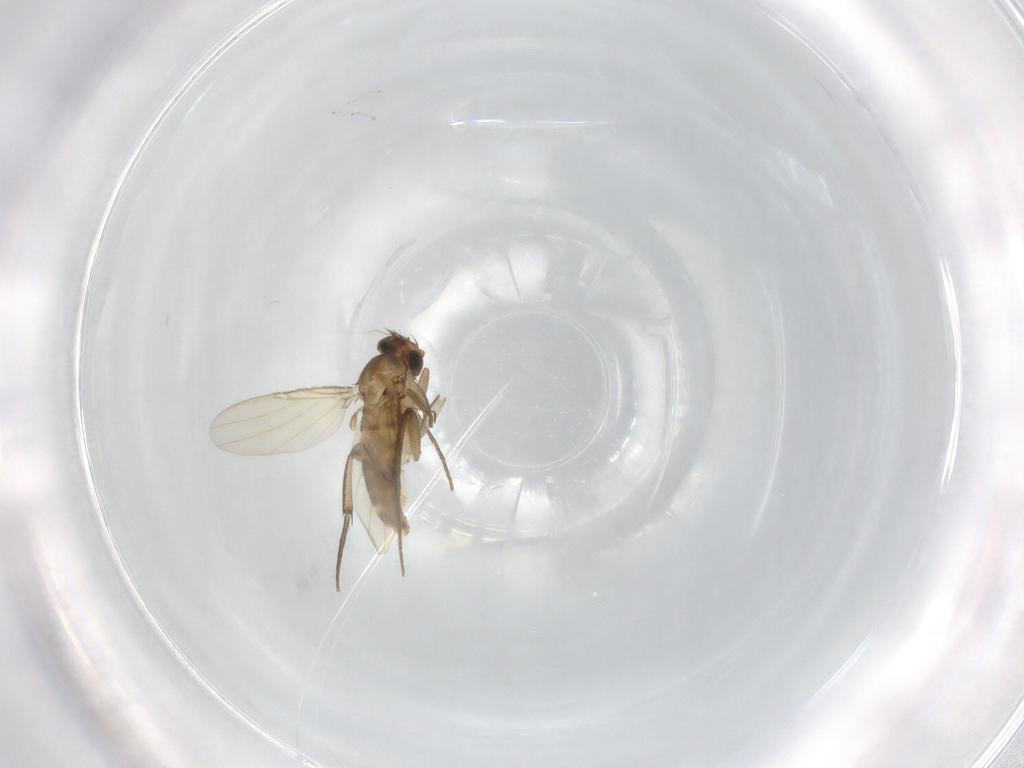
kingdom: Animalia
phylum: Arthropoda
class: Insecta
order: Diptera
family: Phoridae
